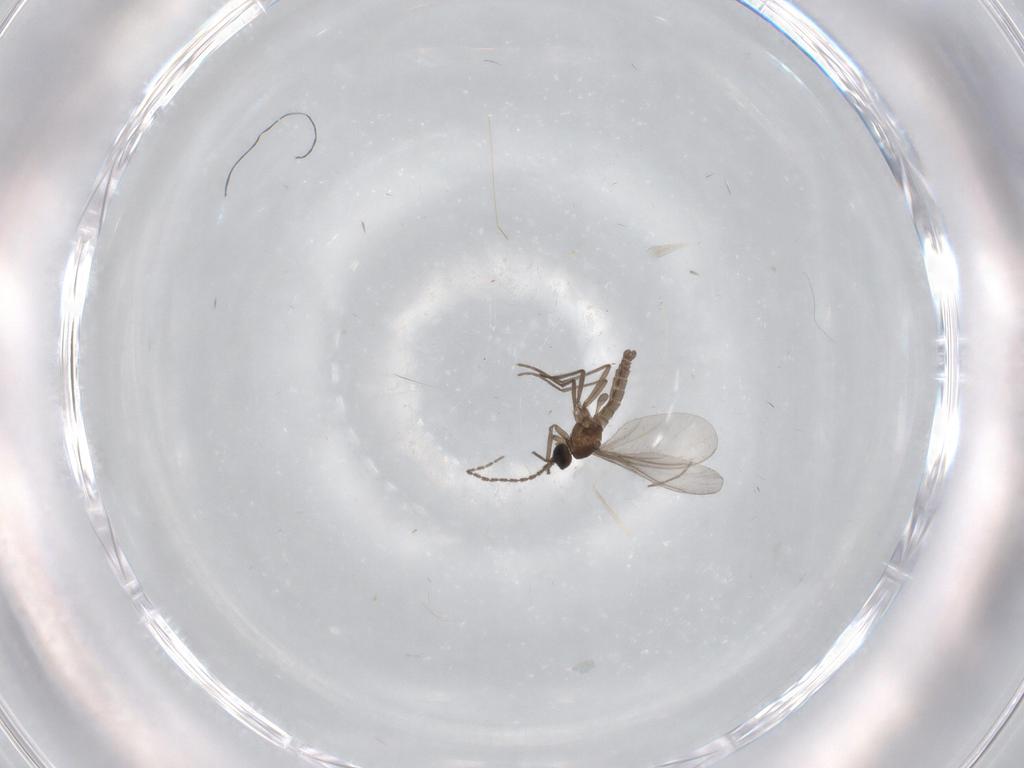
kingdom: Animalia
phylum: Arthropoda
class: Insecta
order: Diptera
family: Sciaridae
